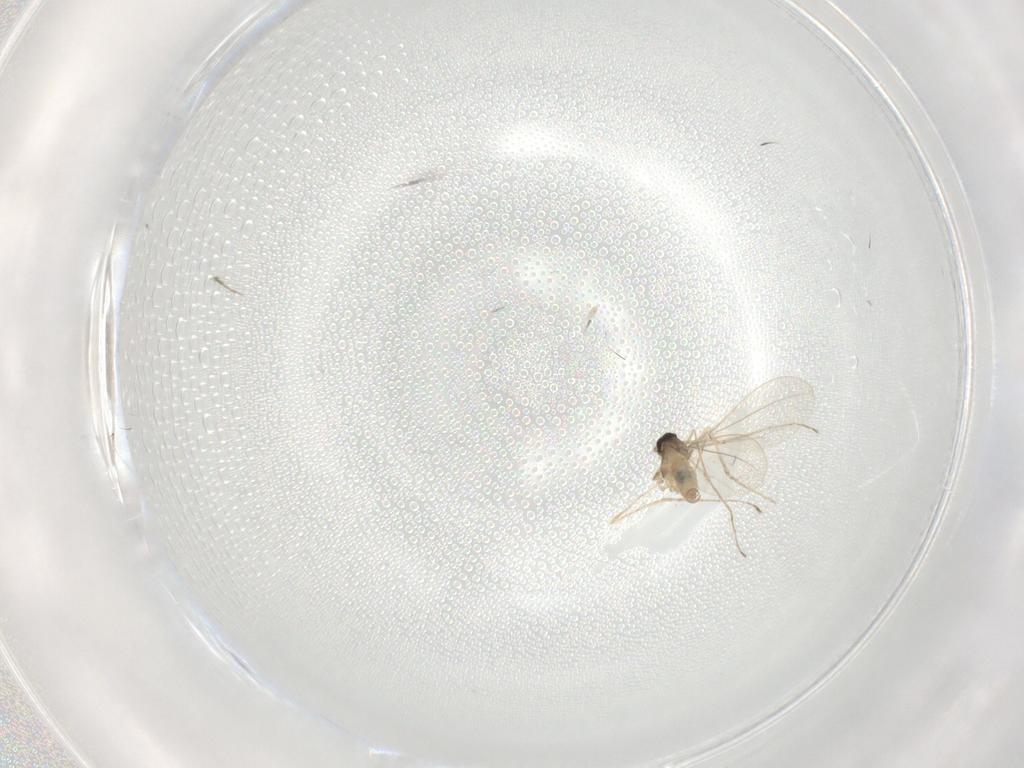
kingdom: Animalia
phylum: Arthropoda
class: Insecta
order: Diptera
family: Cecidomyiidae
